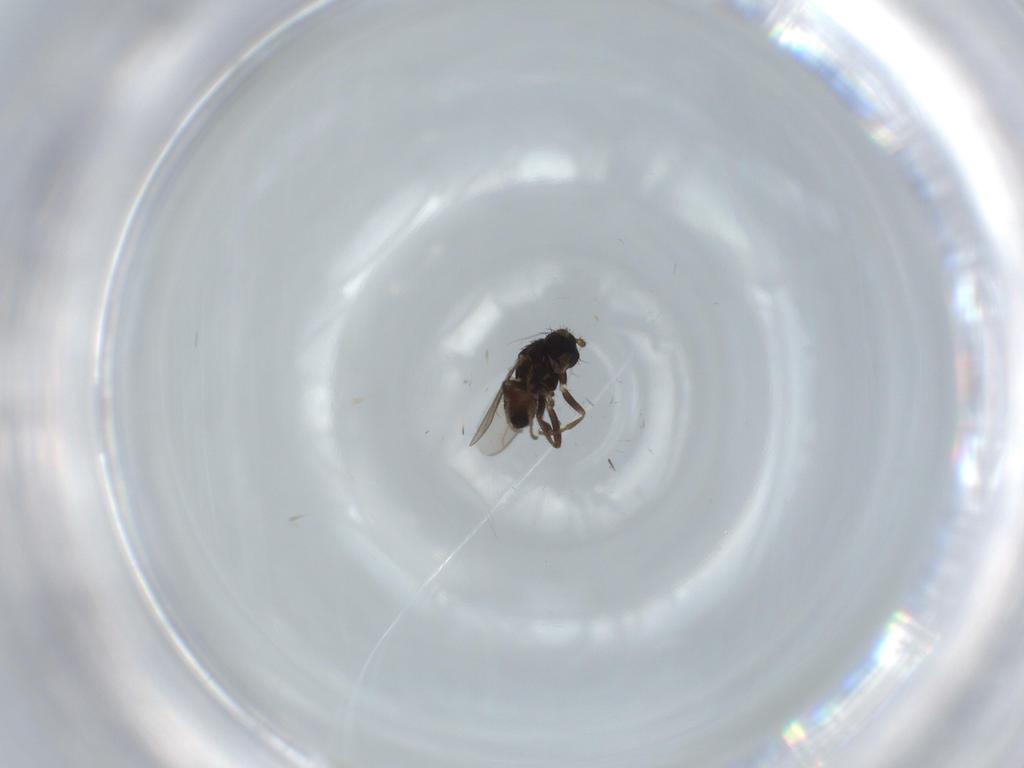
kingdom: Animalia
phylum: Arthropoda
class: Insecta
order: Diptera
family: Sphaeroceridae
